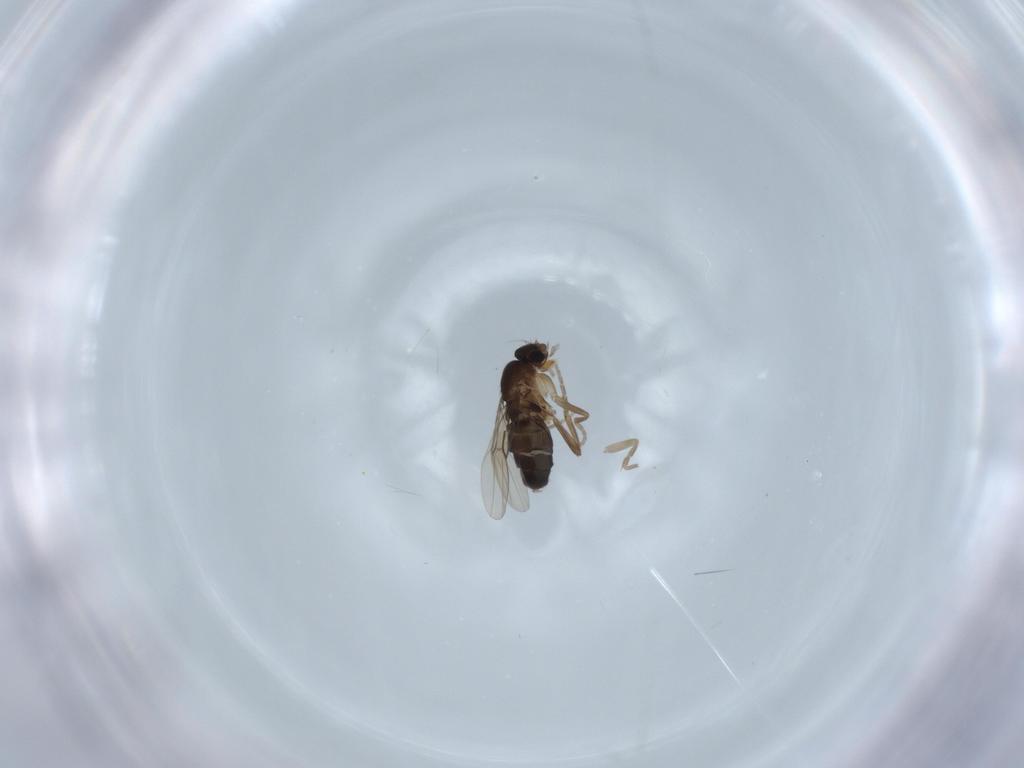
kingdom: Animalia
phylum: Arthropoda
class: Insecta
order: Diptera
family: Phoridae
